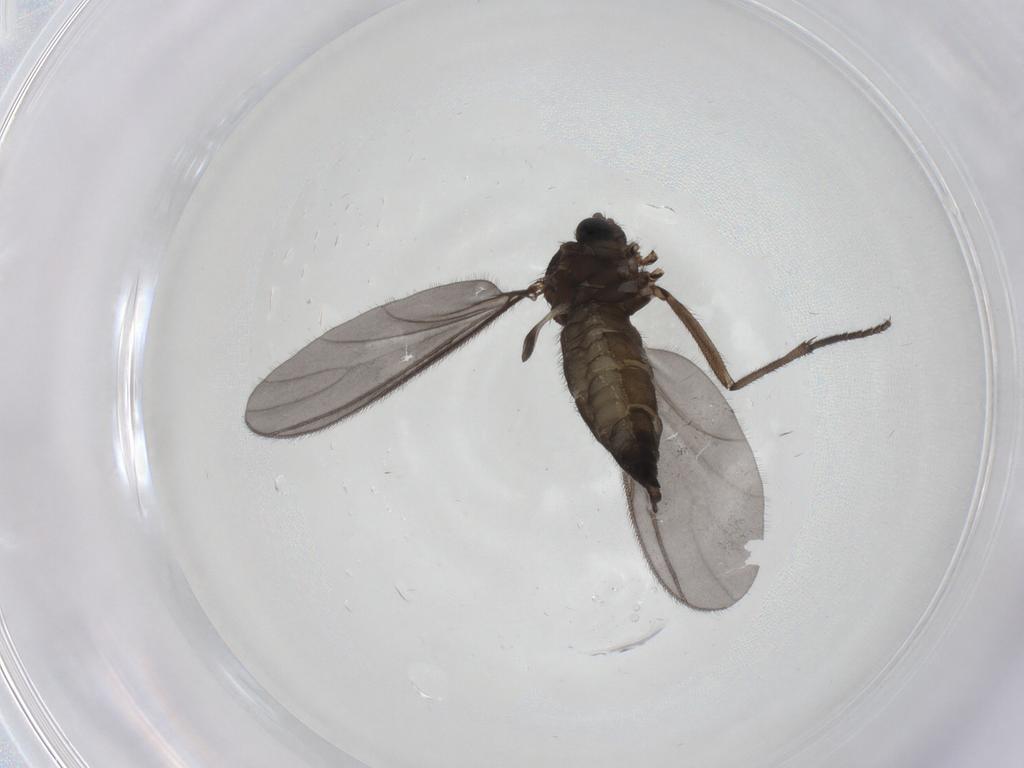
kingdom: Animalia
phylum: Arthropoda
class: Insecta
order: Diptera
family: Sciaridae
